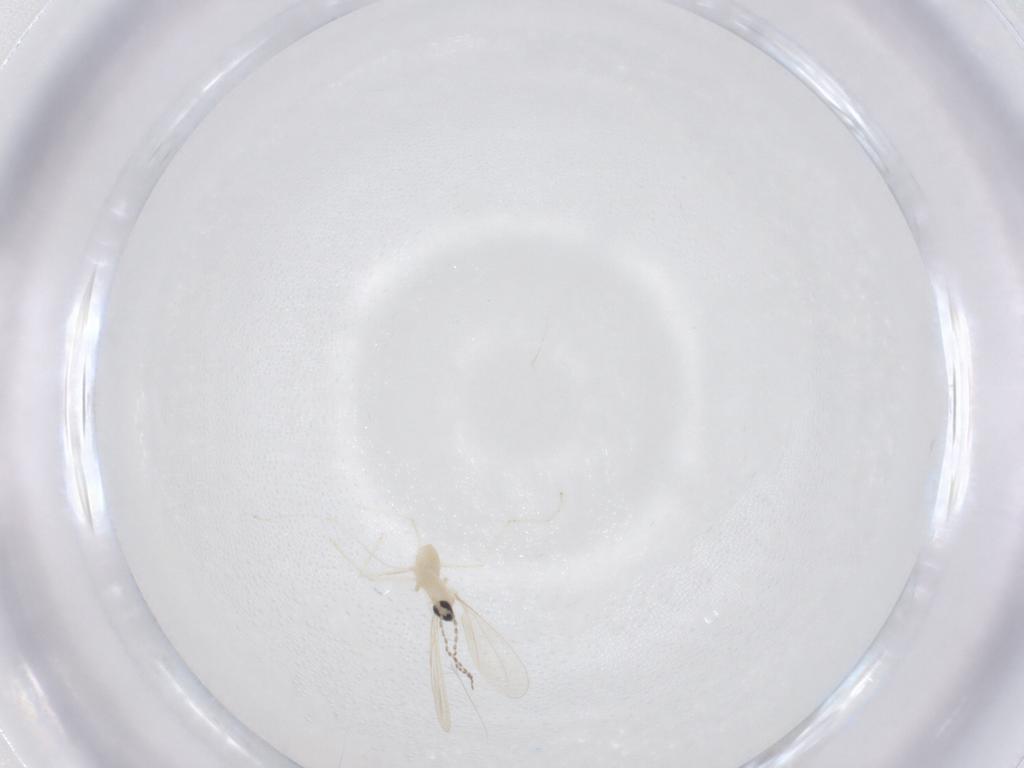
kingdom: Animalia
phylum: Arthropoda
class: Insecta
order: Diptera
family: Cecidomyiidae
